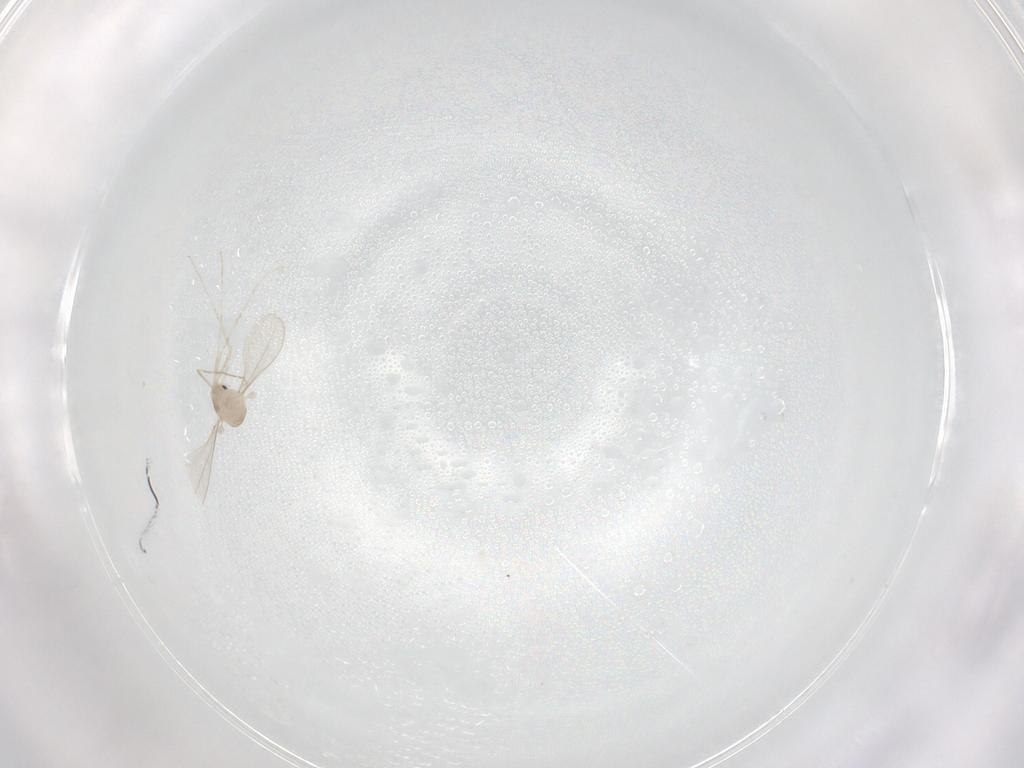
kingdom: Animalia
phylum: Arthropoda
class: Insecta
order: Diptera
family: Cecidomyiidae
